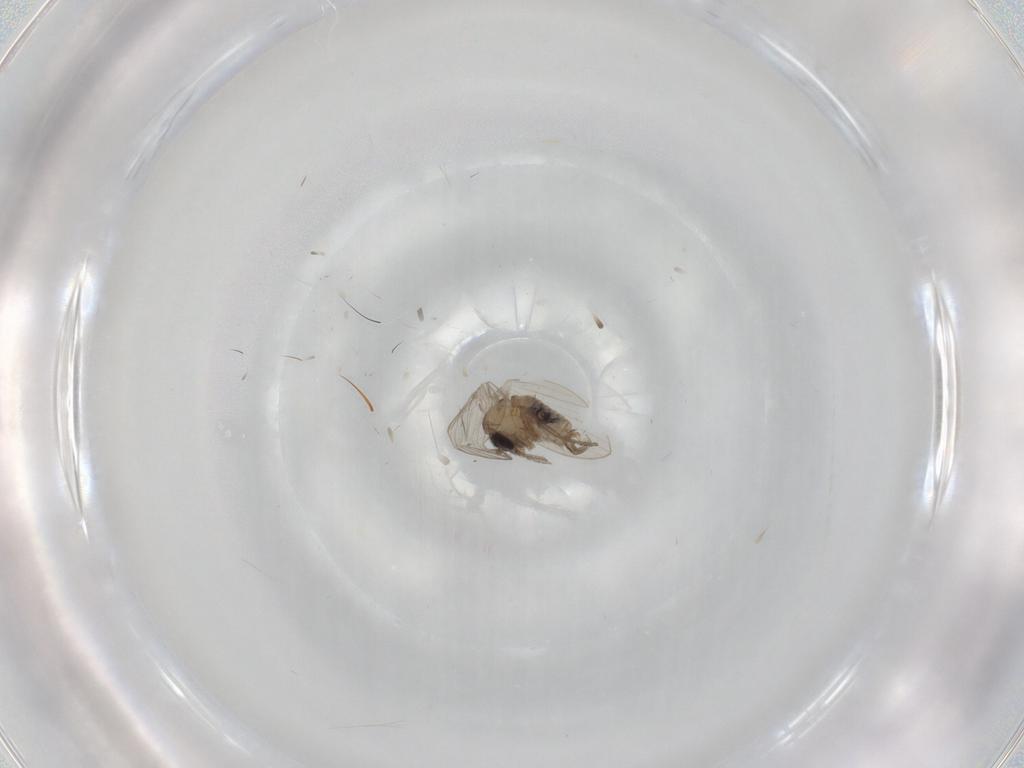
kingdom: Animalia
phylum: Arthropoda
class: Insecta
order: Diptera
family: Psychodidae
